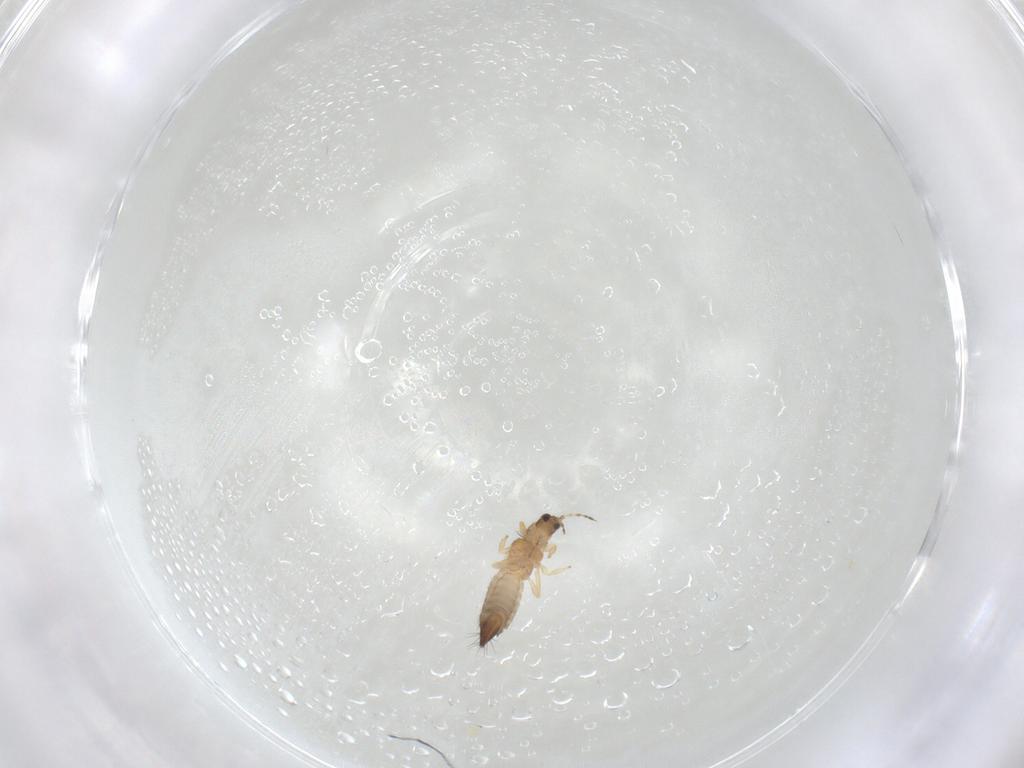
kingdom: Animalia
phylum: Arthropoda
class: Insecta
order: Thysanoptera
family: Thripidae
